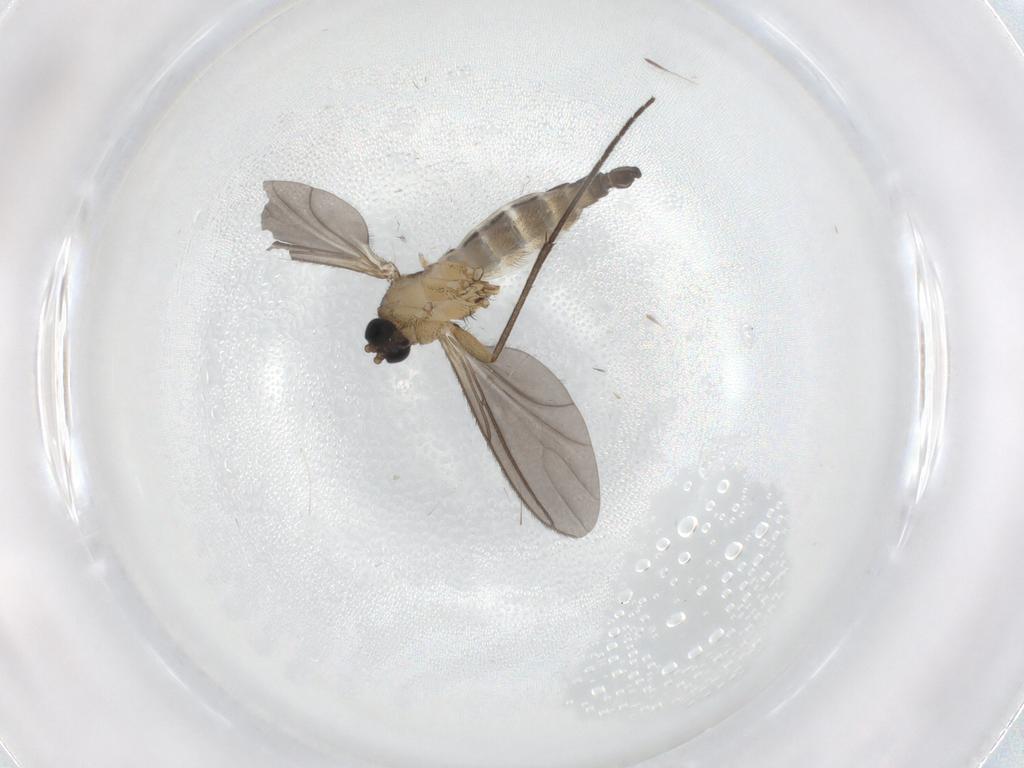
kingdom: Animalia
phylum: Arthropoda
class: Insecta
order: Diptera
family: Sciaridae
